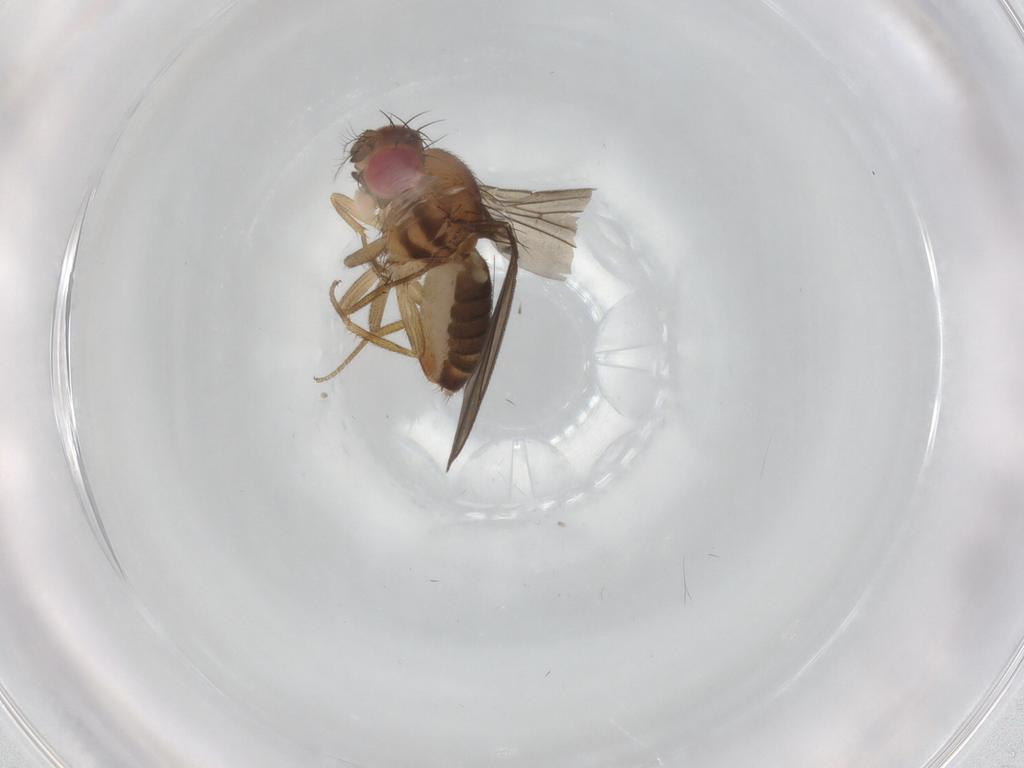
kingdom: Animalia
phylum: Arthropoda
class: Insecta
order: Diptera
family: Drosophilidae
